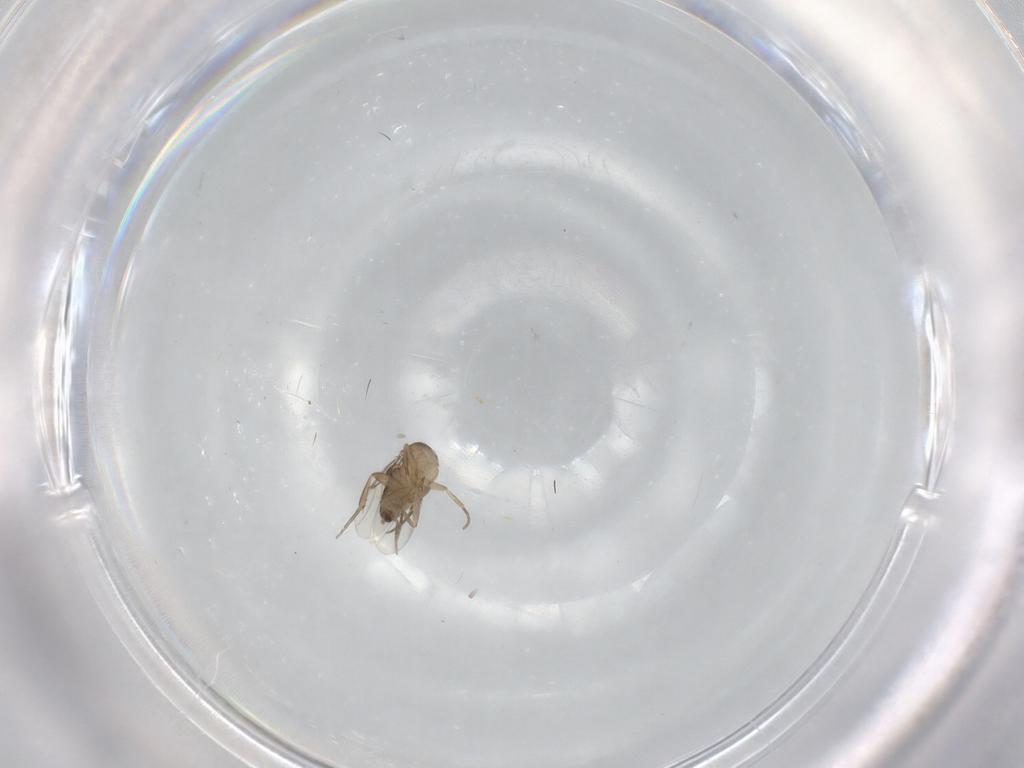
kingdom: Animalia
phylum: Arthropoda
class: Insecta
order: Diptera
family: Phoridae
